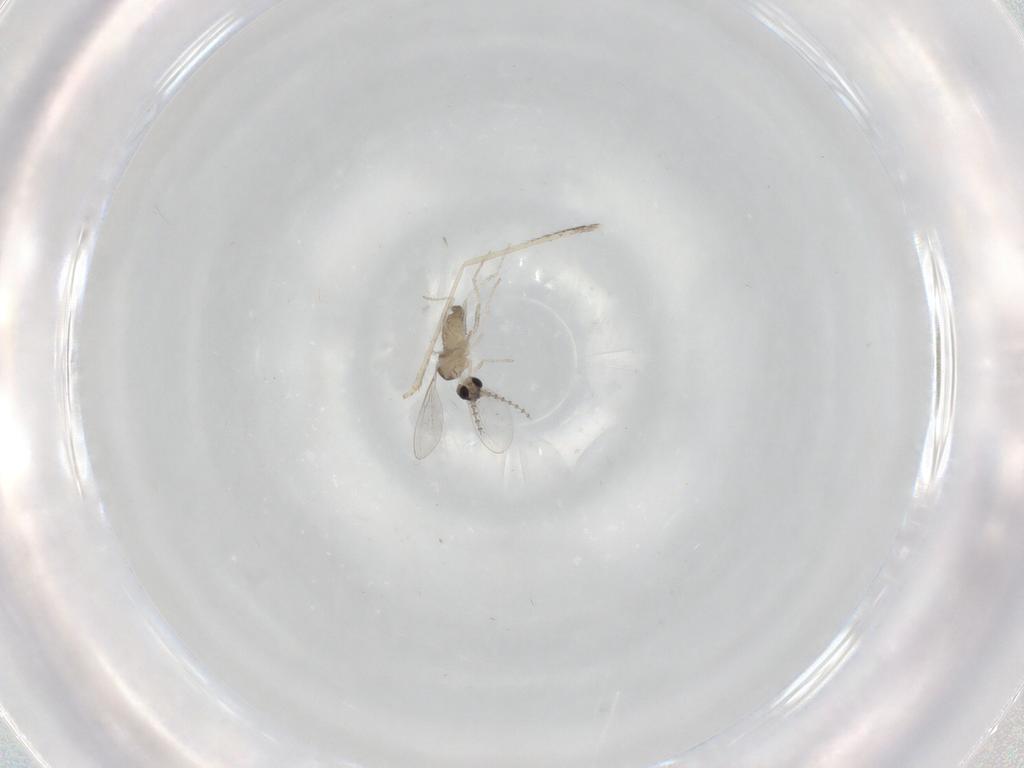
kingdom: Animalia
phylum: Arthropoda
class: Insecta
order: Diptera
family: Cecidomyiidae
